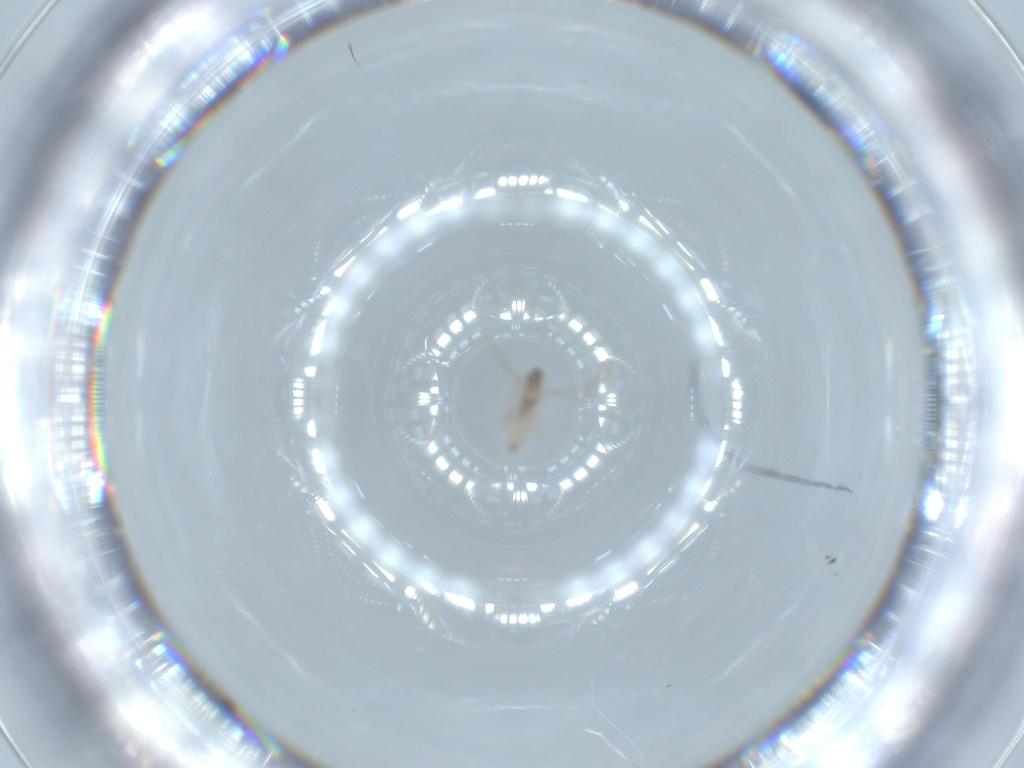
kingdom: Animalia
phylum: Arthropoda
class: Insecta
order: Diptera
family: Cecidomyiidae
